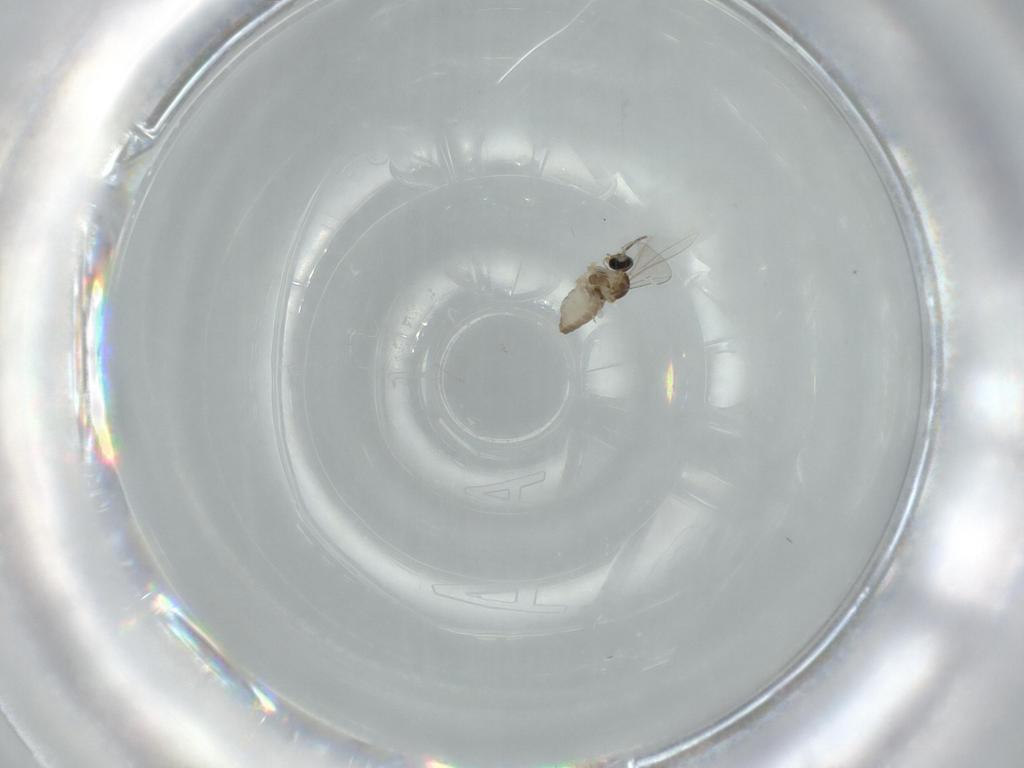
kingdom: Animalia
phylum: Arthropoda
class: Insecta
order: Diptera
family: Cecidomyiidae
